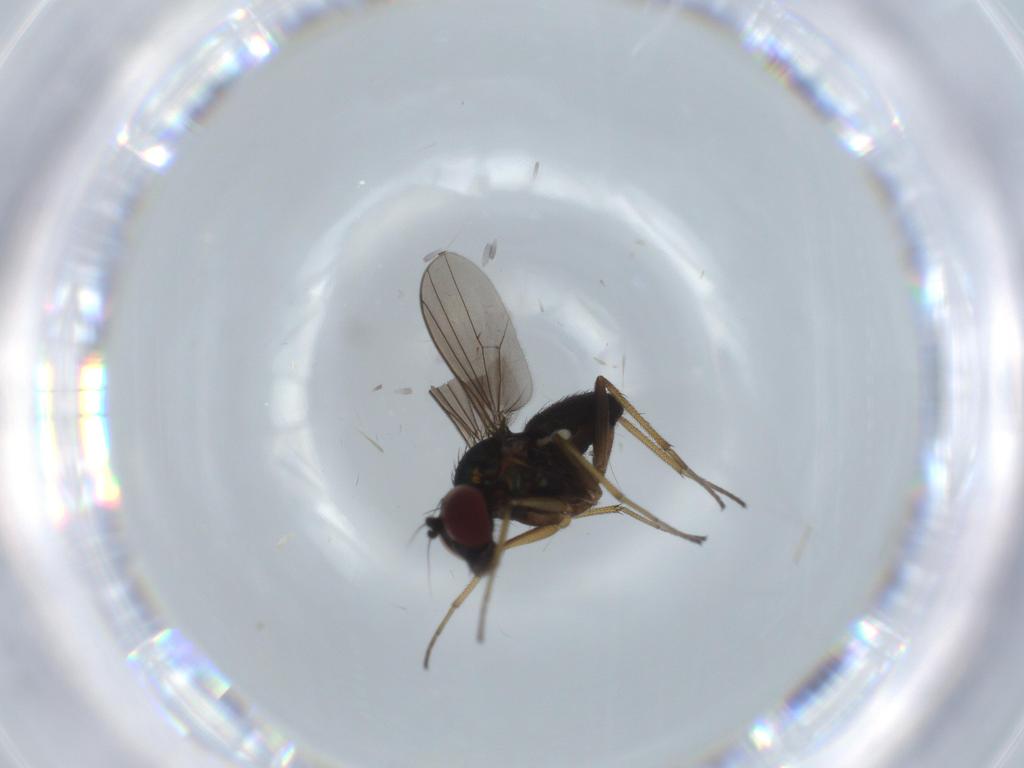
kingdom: Animalia
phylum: Arthropoda
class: Insecta
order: Diptera
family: Dolichopodidae
